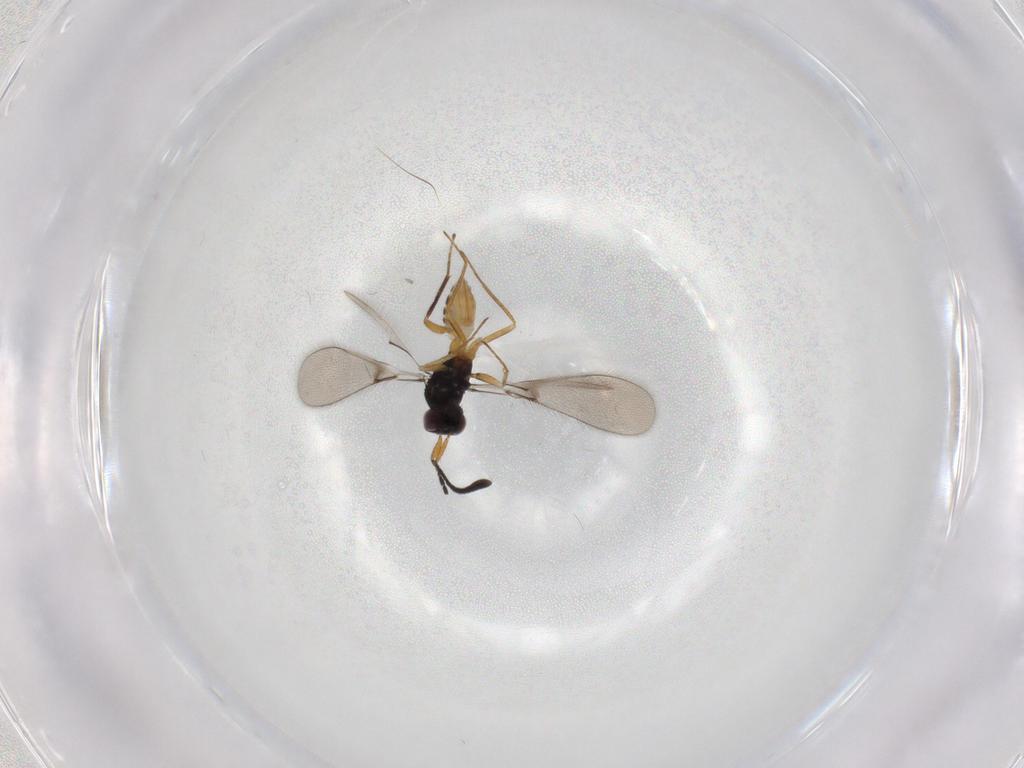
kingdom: Animalia
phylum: Arthropoda
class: Insecta
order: Hymenoptera
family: Mymaridae
